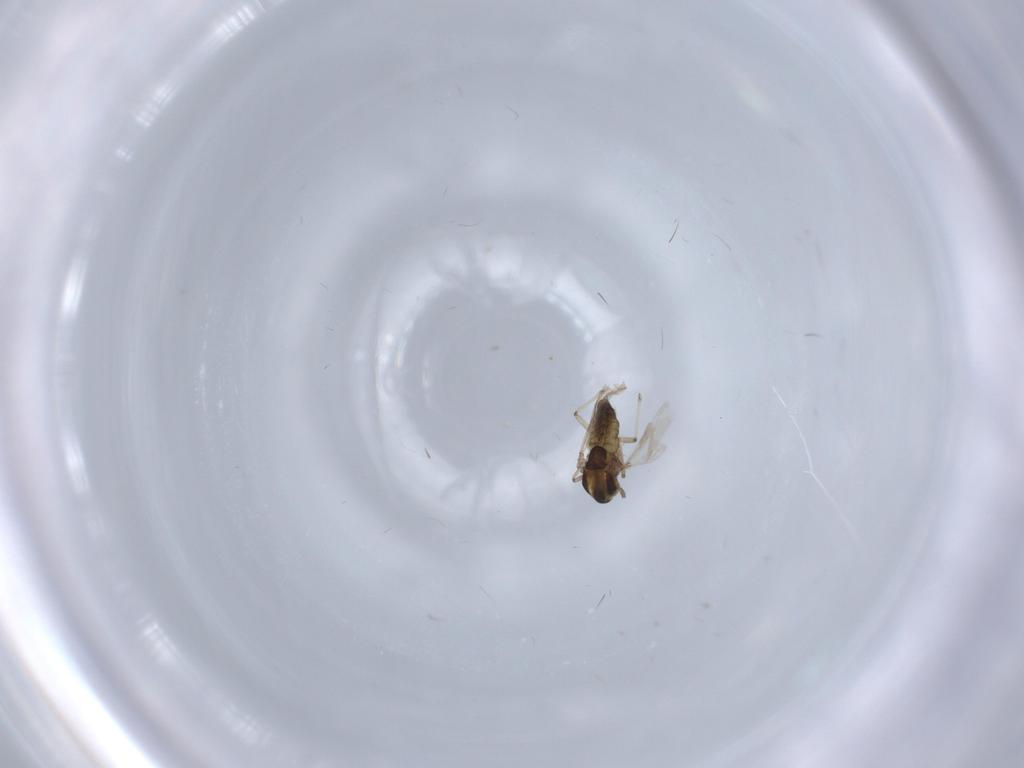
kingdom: Animalia
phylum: Arthropoda
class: Insecta
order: Diptera
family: Chironomidae
